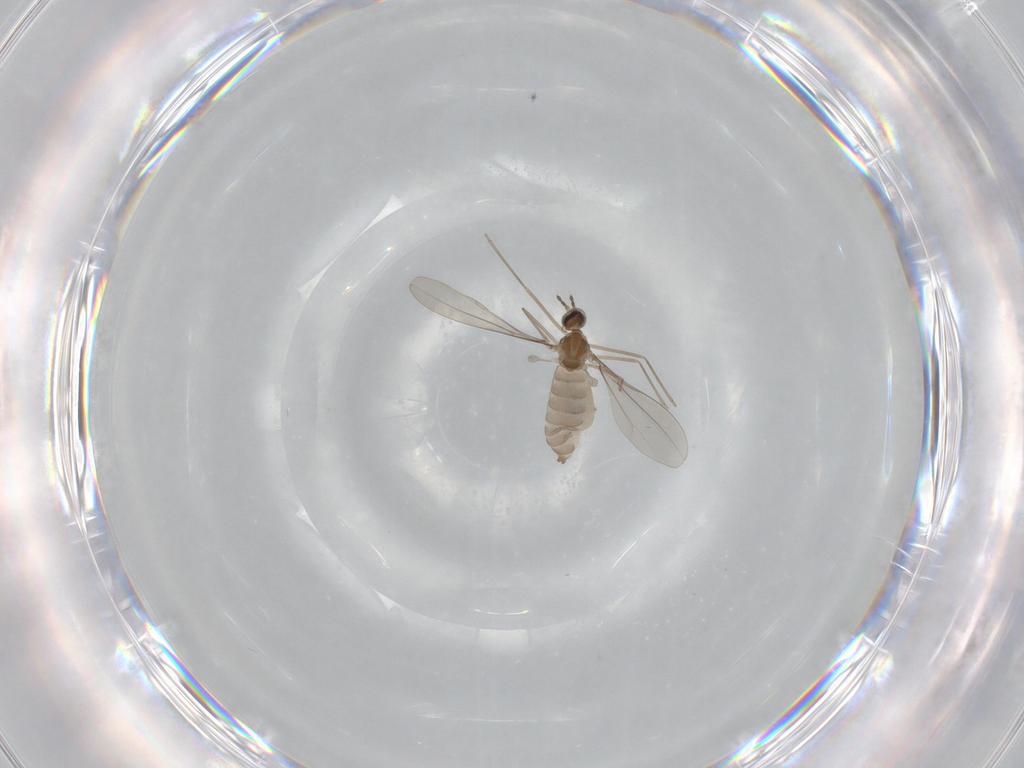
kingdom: Animalia
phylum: Arthropoda
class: Insecta
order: Diptera
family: Cecidomyiidae
